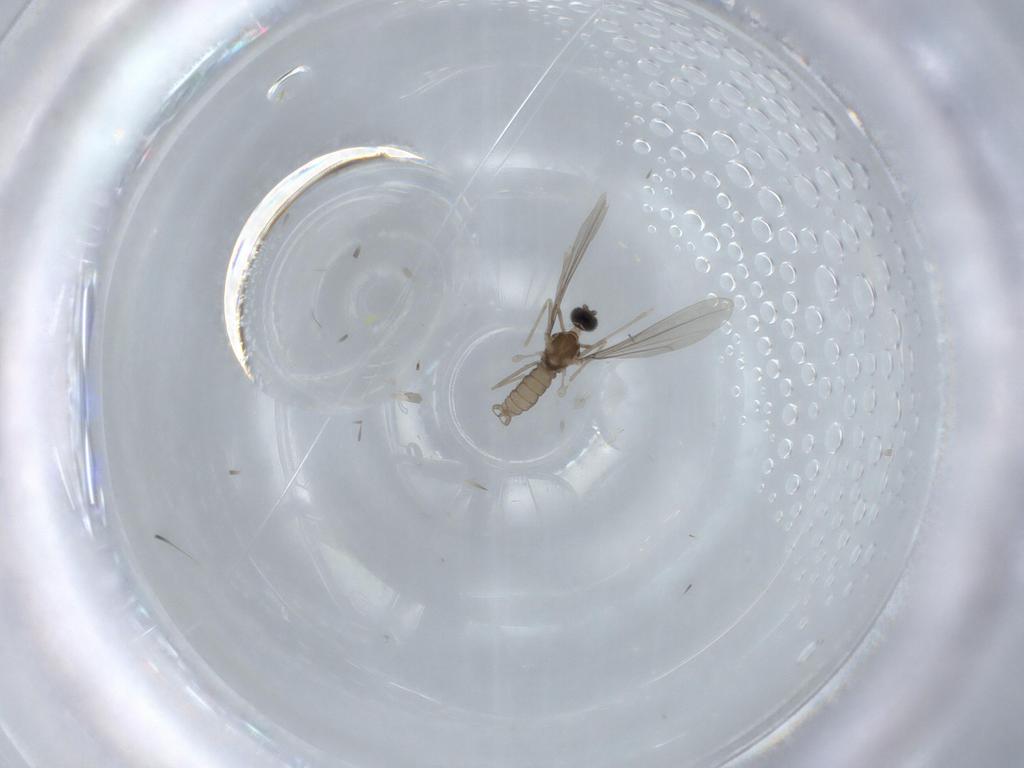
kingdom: Animalia
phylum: Arthropoda
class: Insecta
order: Diptera
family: Cecidomyiidae
